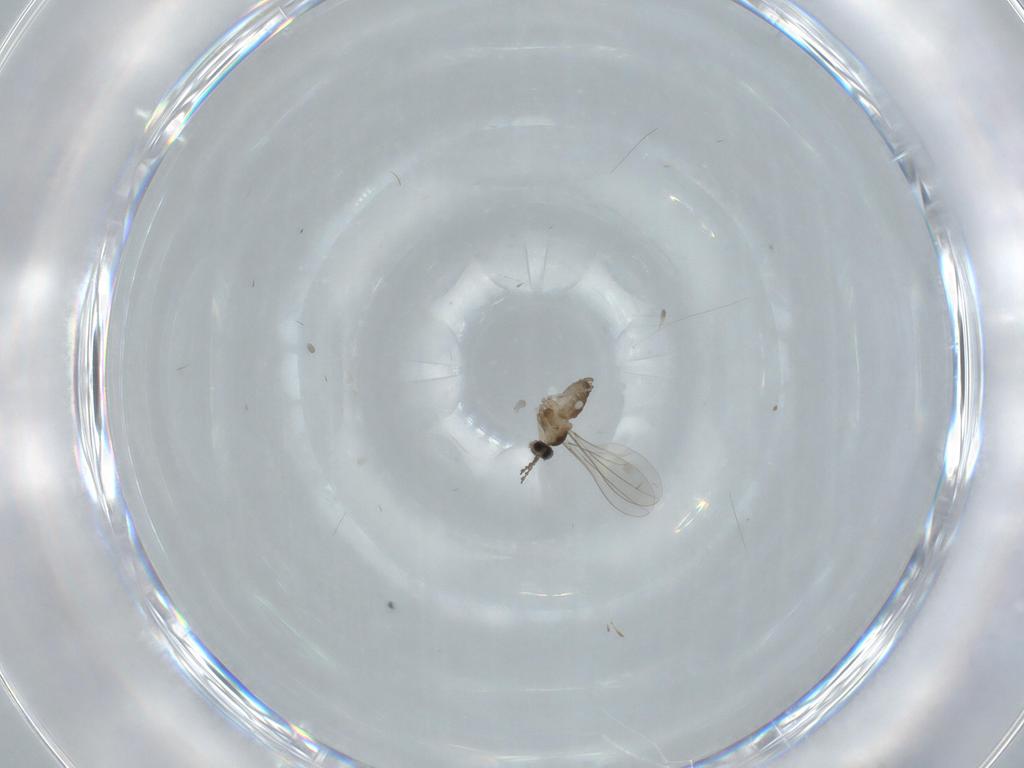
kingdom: Animalia
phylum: Arthropoda
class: Insecta
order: Diptera
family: Cecidomyiidae
